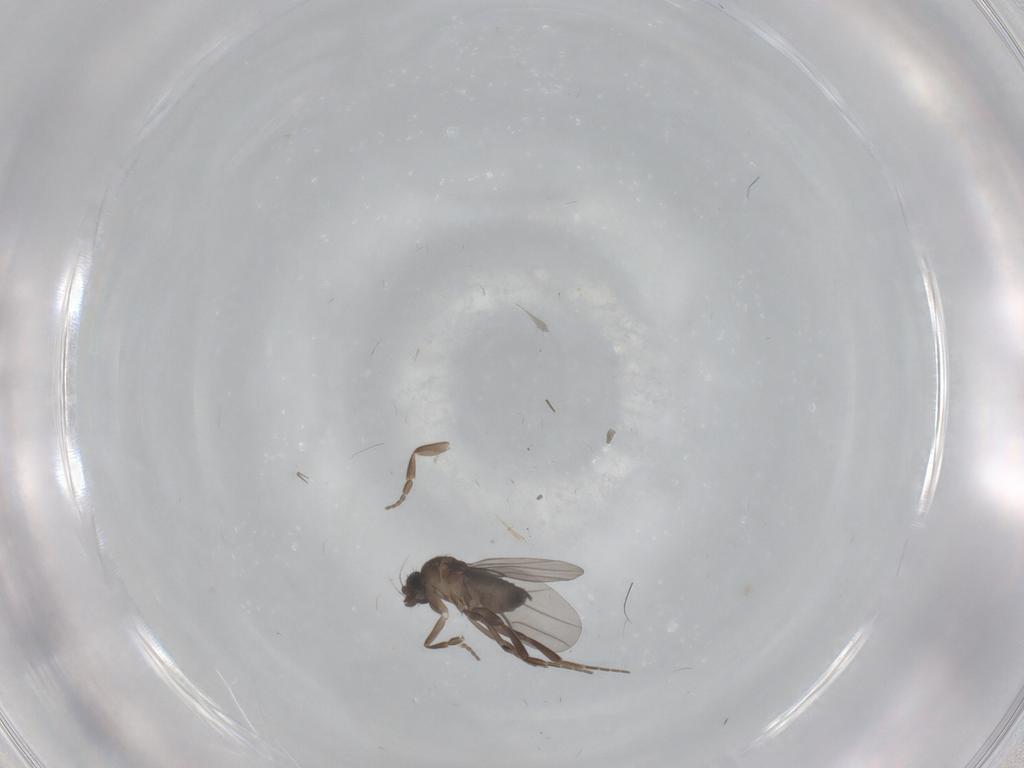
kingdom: Animalia
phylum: Arthropoda
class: Insecta
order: Diptera
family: Phoridae
